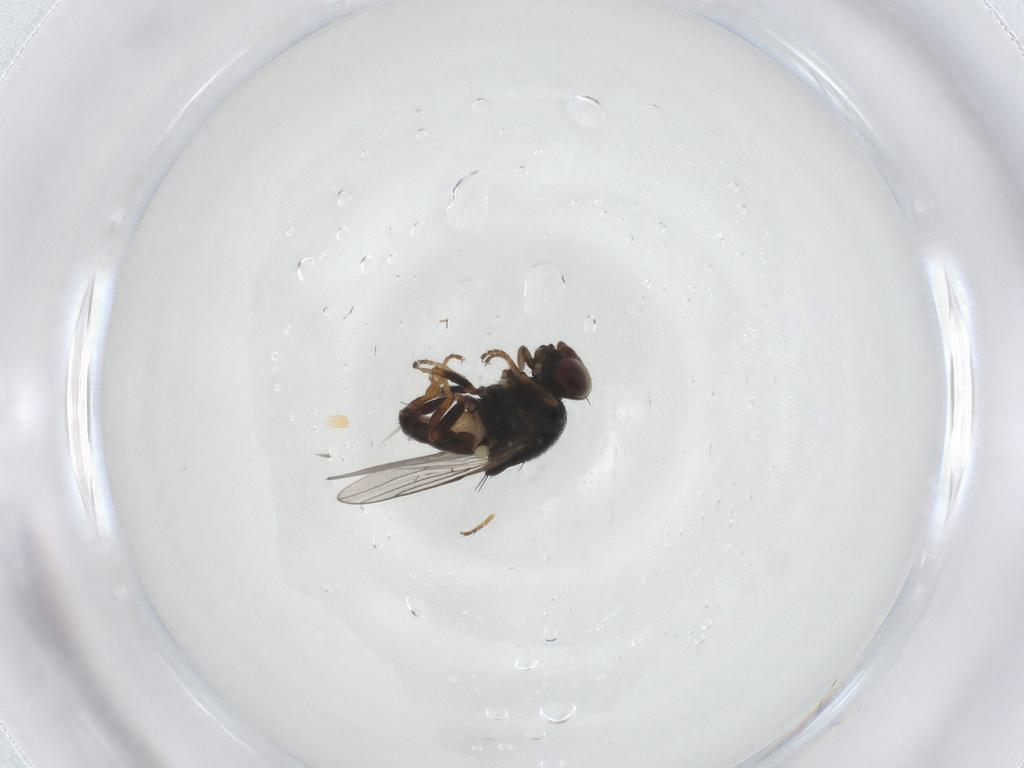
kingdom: Animalia
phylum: Arthropoda
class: Insecta
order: Diptera
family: Chloropidae
